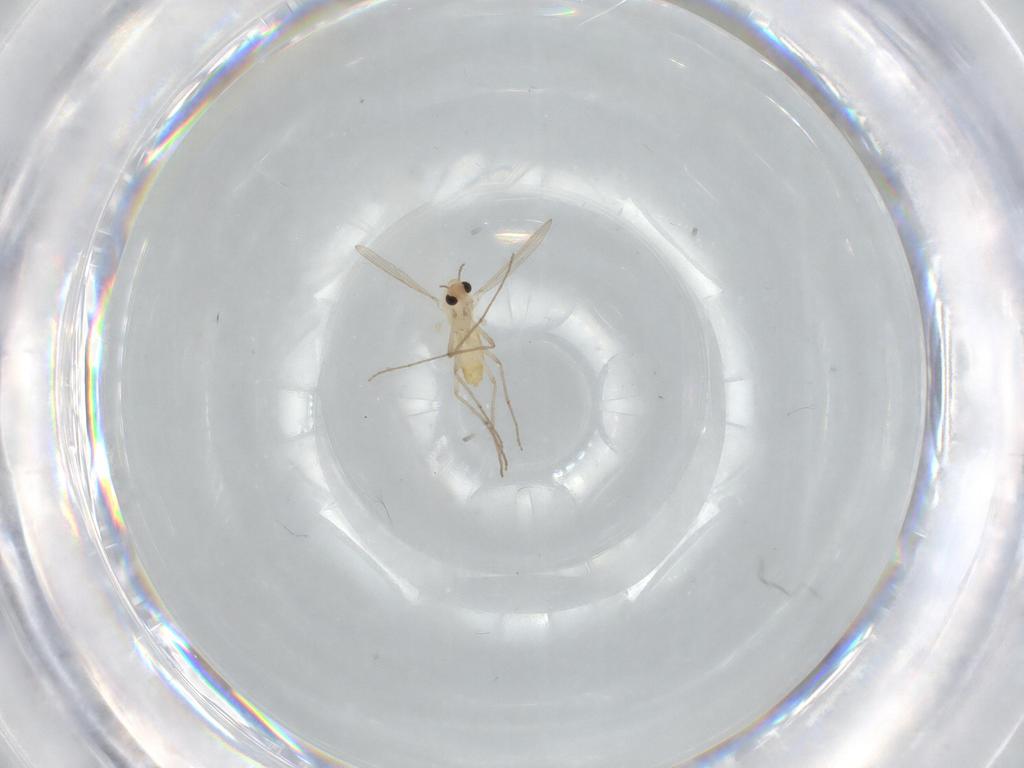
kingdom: Animalia
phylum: Arthropoda
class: Insecta
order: Diptera
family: Chironomidae
